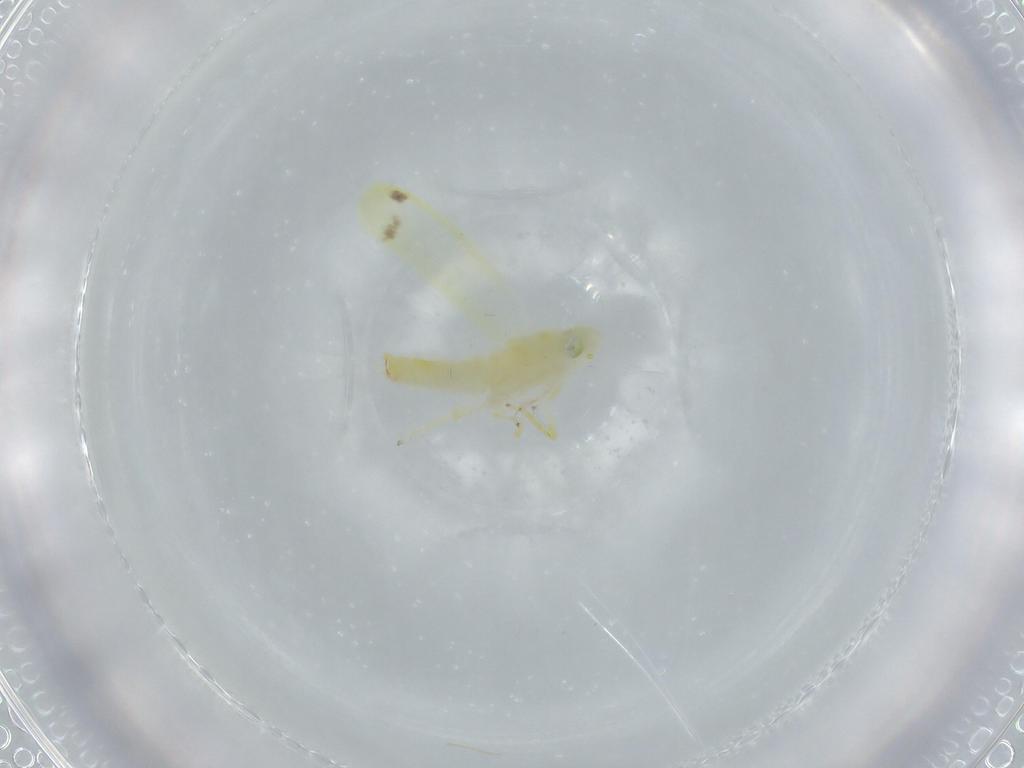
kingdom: Animalia
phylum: Arthropoda
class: Insecta
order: Hemiptera
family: Cicadellidae
